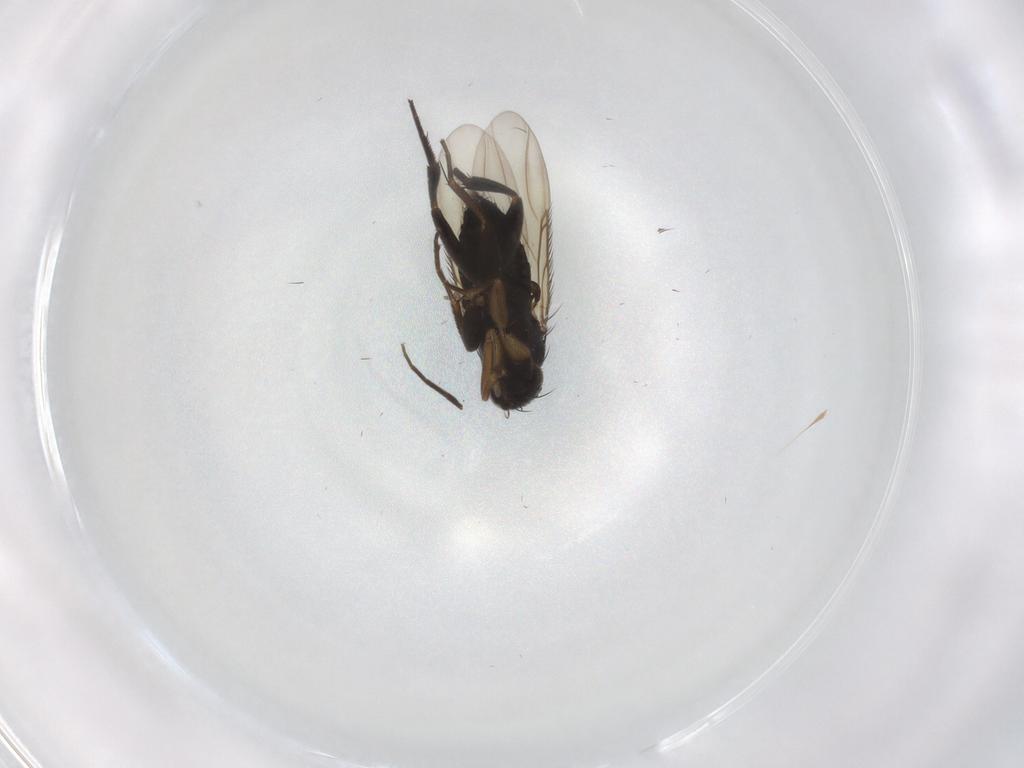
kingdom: Animalia
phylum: Arthropoda
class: Insecta
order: Diptera
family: Phoridae
